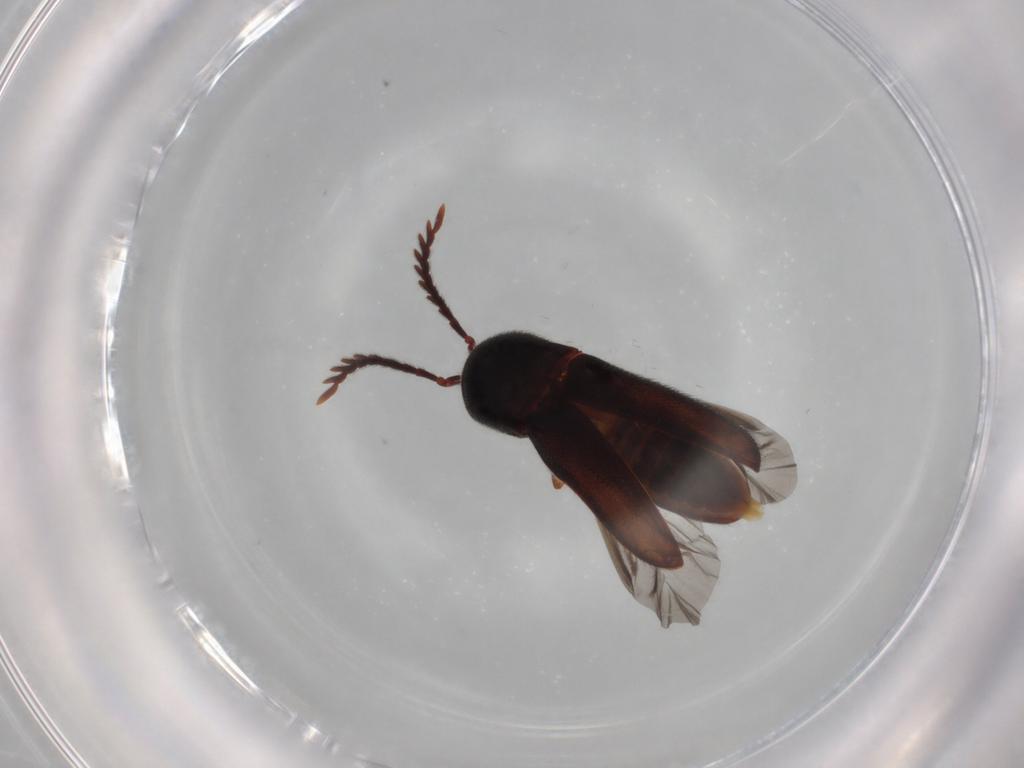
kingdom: Animalia
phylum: Arthropoda
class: Insecta
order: Coleoptera
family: Eucnemidae
